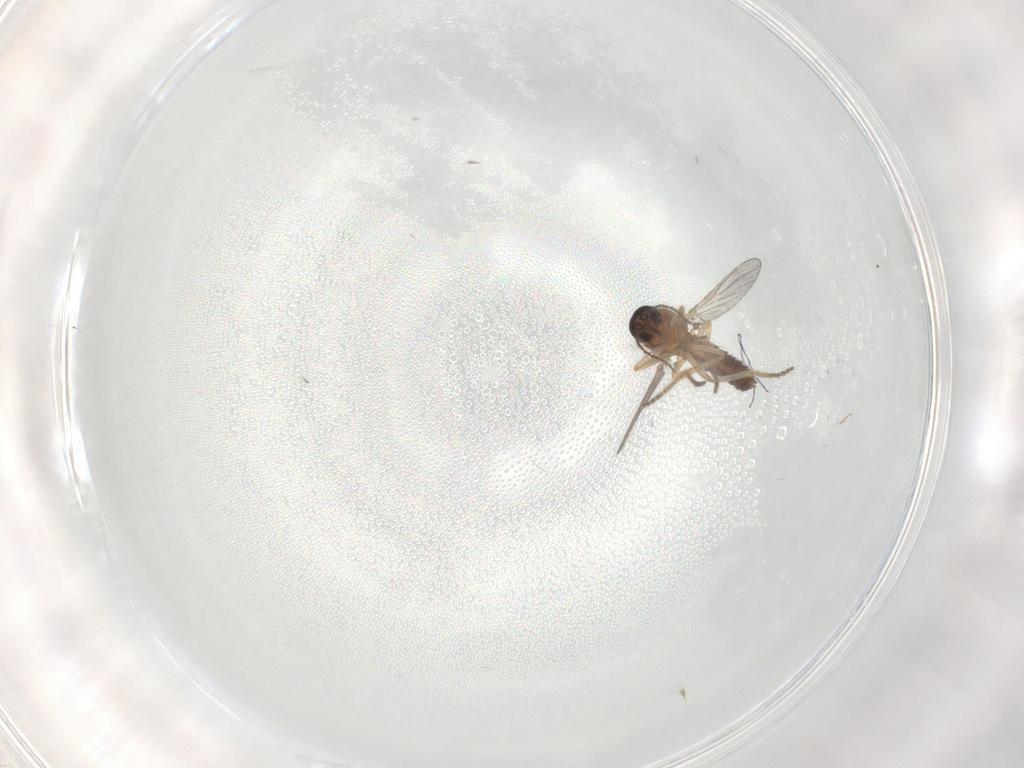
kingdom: Animalia
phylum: Arthropoda
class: Insecta
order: Diptera
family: Ceratopogonidae
